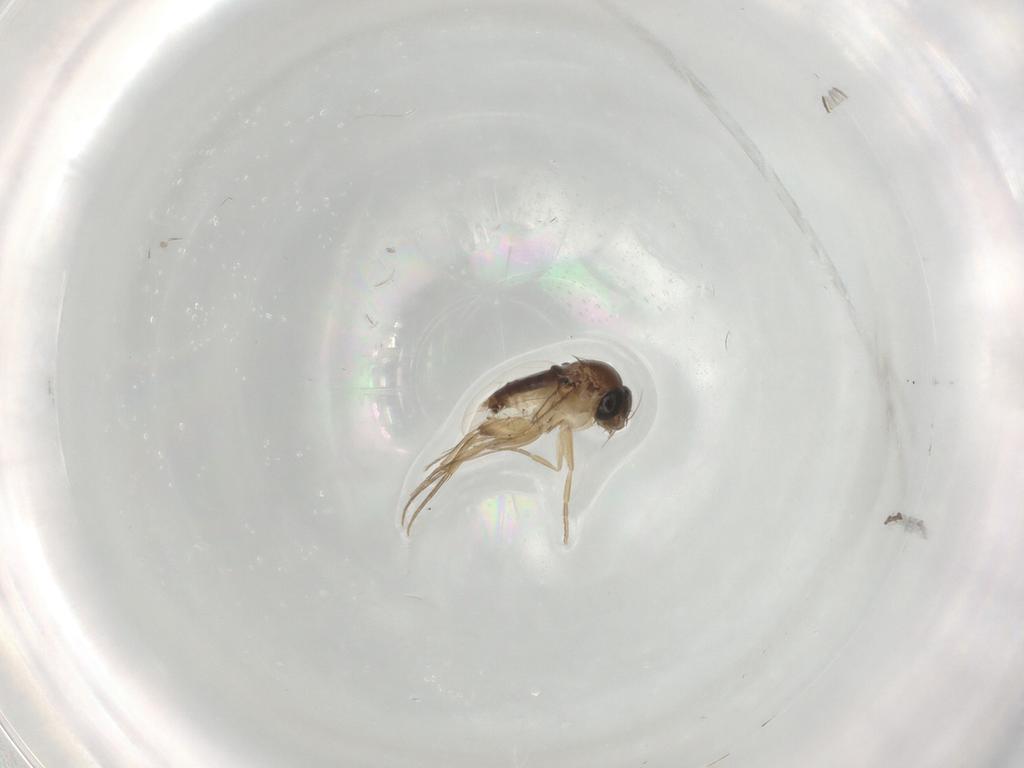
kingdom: Animalia
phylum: Arthropoda
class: Insecta
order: Diptera
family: Phoridae
